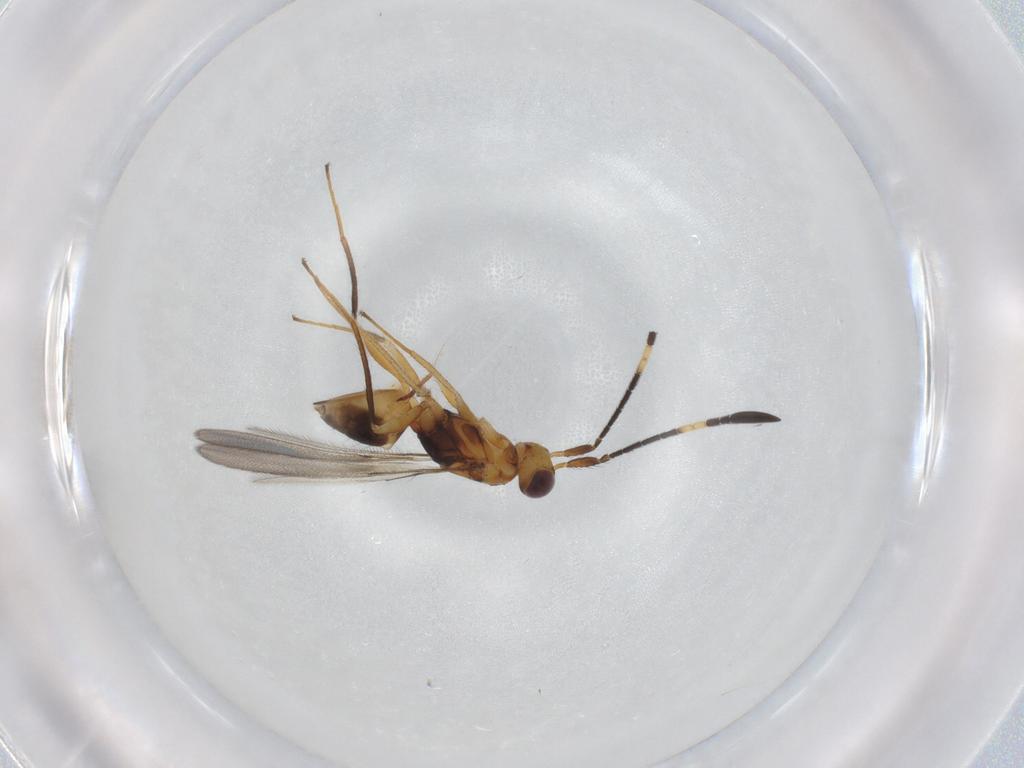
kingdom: Animalia
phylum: Arthropoda
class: Insecta
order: Hymenoptera
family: Mymaridae
